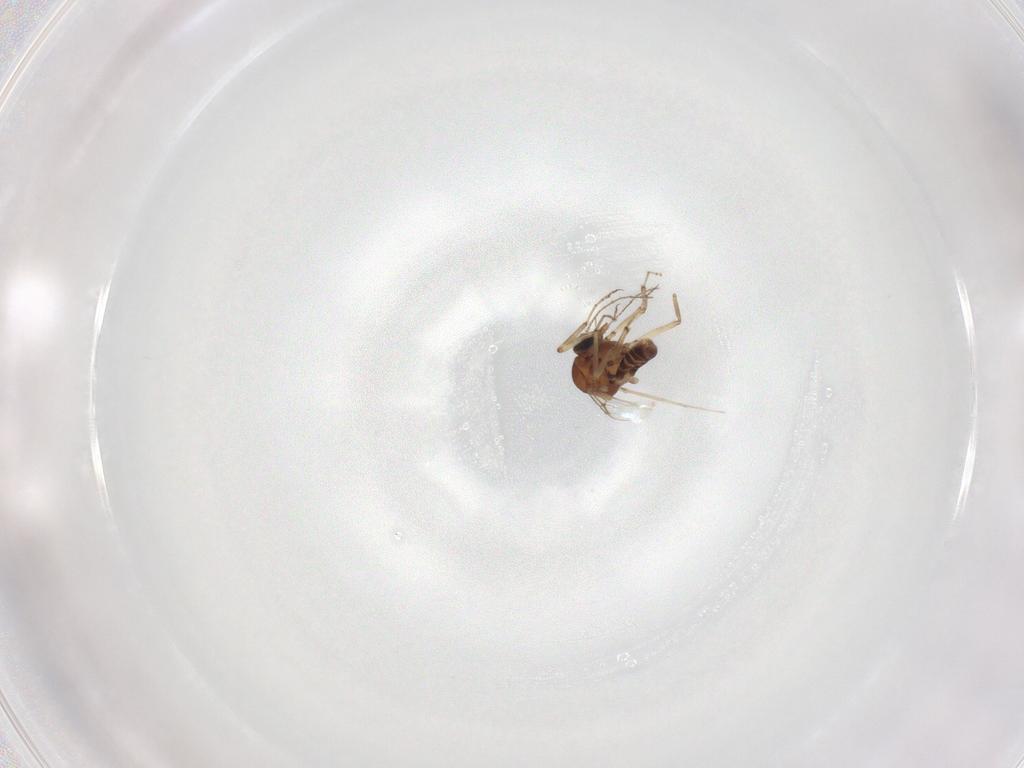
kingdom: Animalia
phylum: Arthropoda
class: Insecta
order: Diptera
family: Ceratopogonidae
